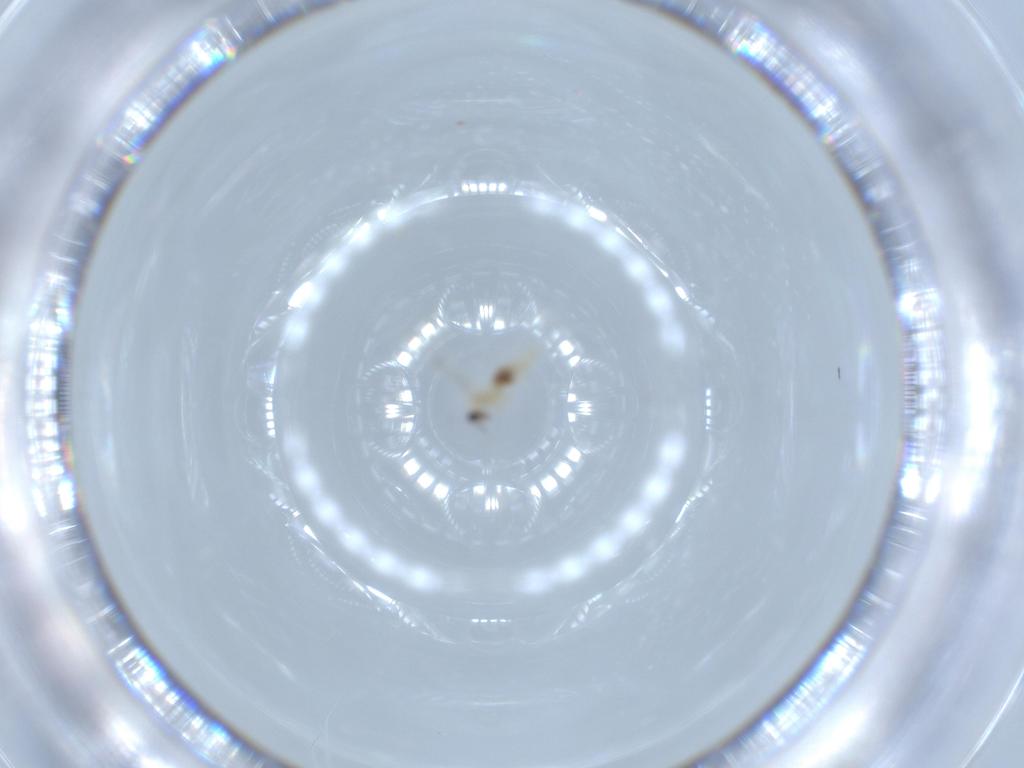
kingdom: Animalia
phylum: Arthropoda
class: Insecta
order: Diptera
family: Cecidomyiidae
